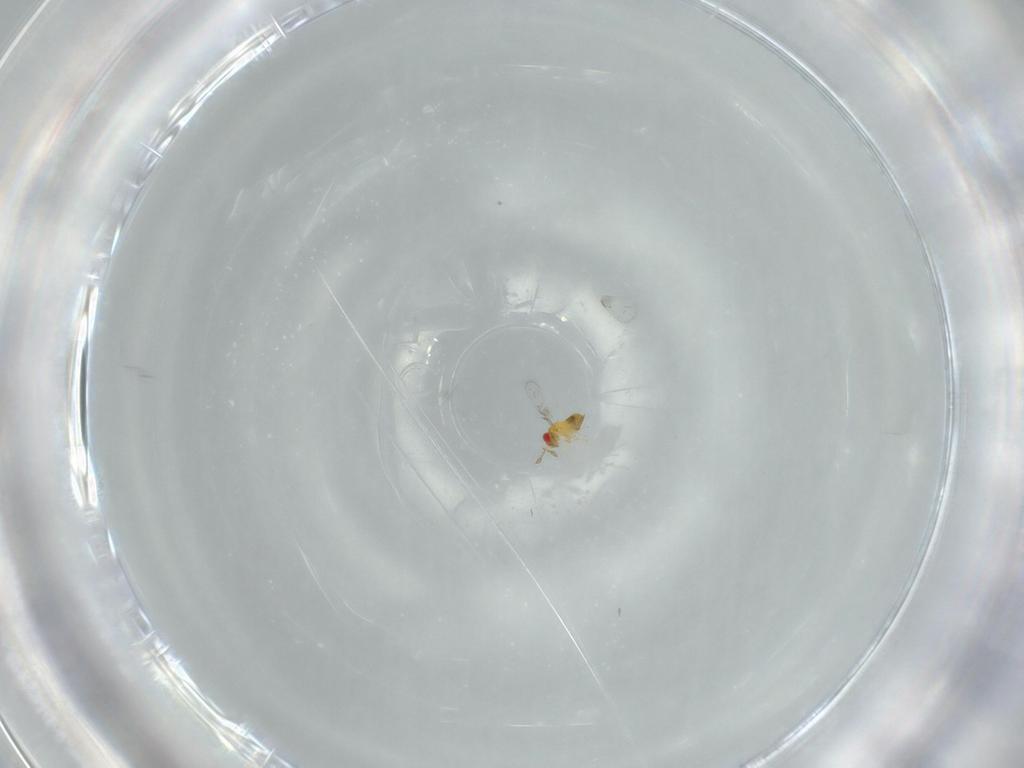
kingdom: Animalia
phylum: Arthropoda
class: Insecta
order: Hymenoptera
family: Trichogrammatidae
